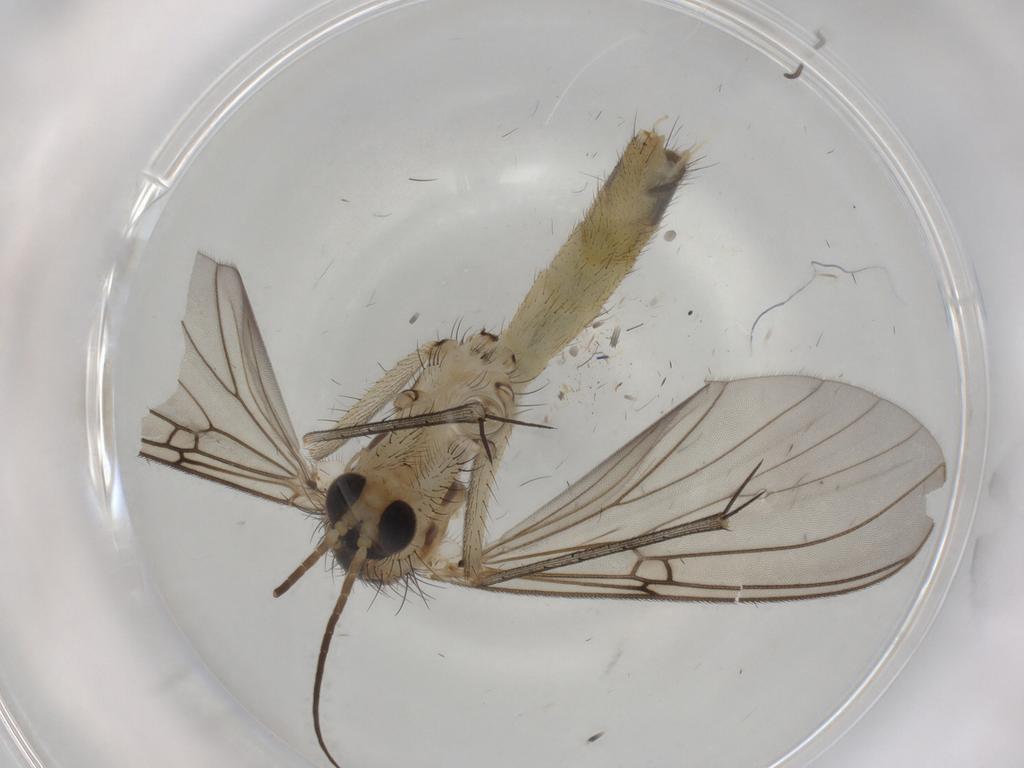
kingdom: Animalia
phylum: Arthropoda
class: Insecta
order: Diptera
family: Mycetophilidae
